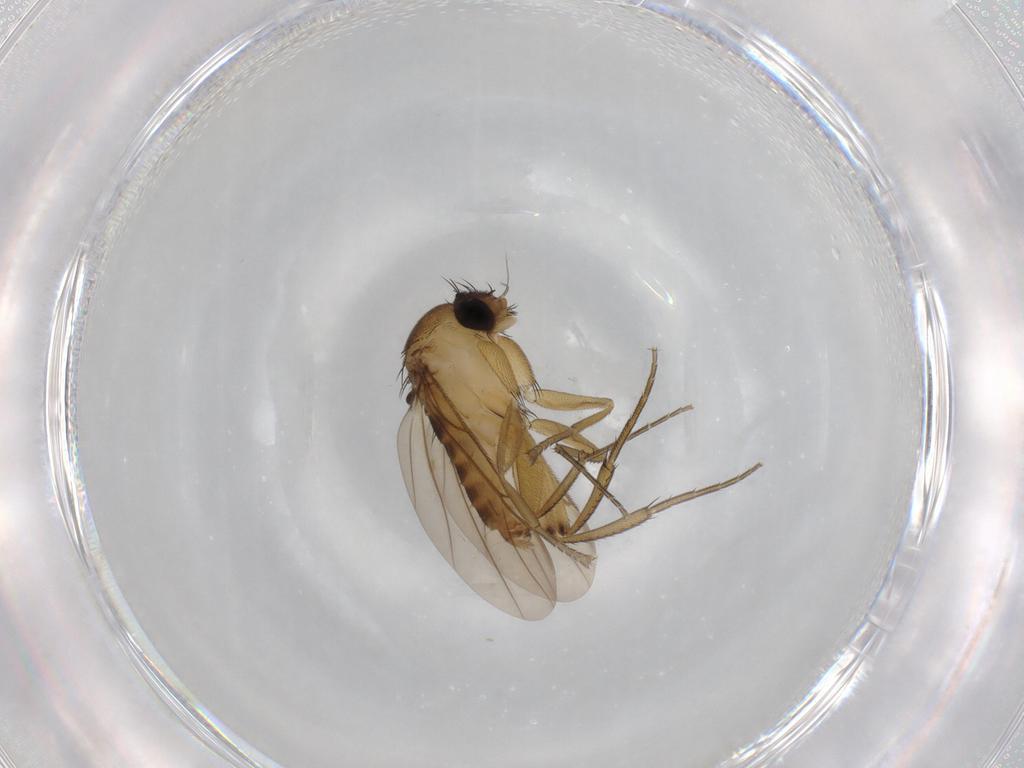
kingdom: Animalia
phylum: Arthropoda
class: Insecta
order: Diptera
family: Phoridae
